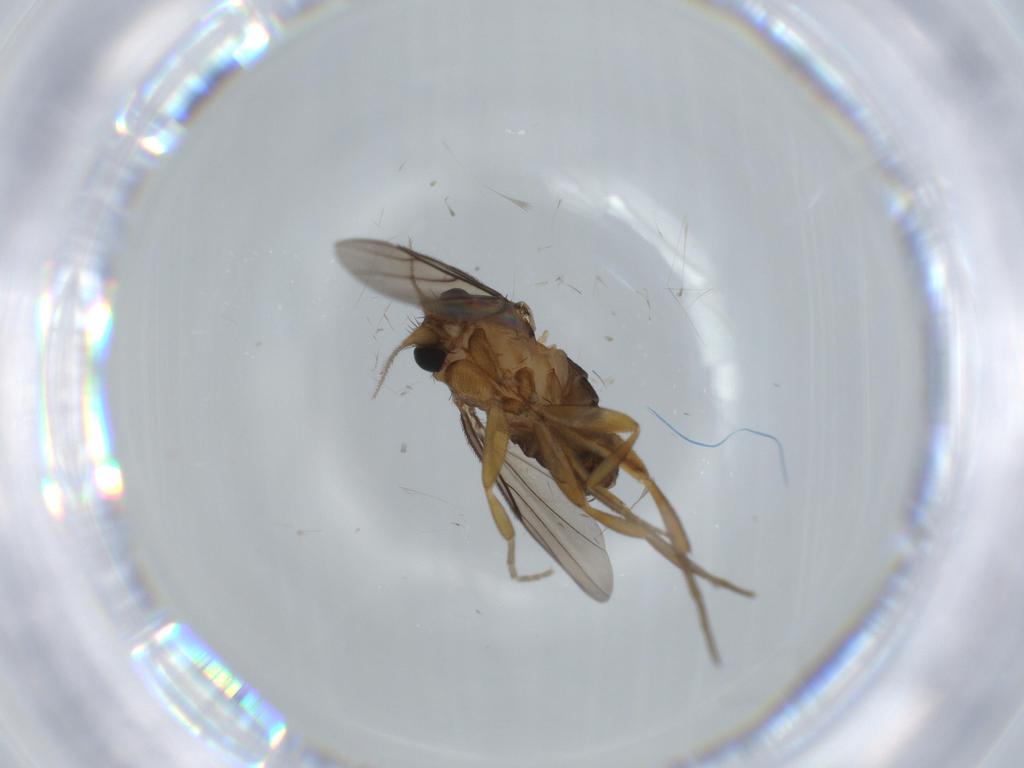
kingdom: Animalia
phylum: Arthropoda
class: Insecta
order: Diptera
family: Phoridae
